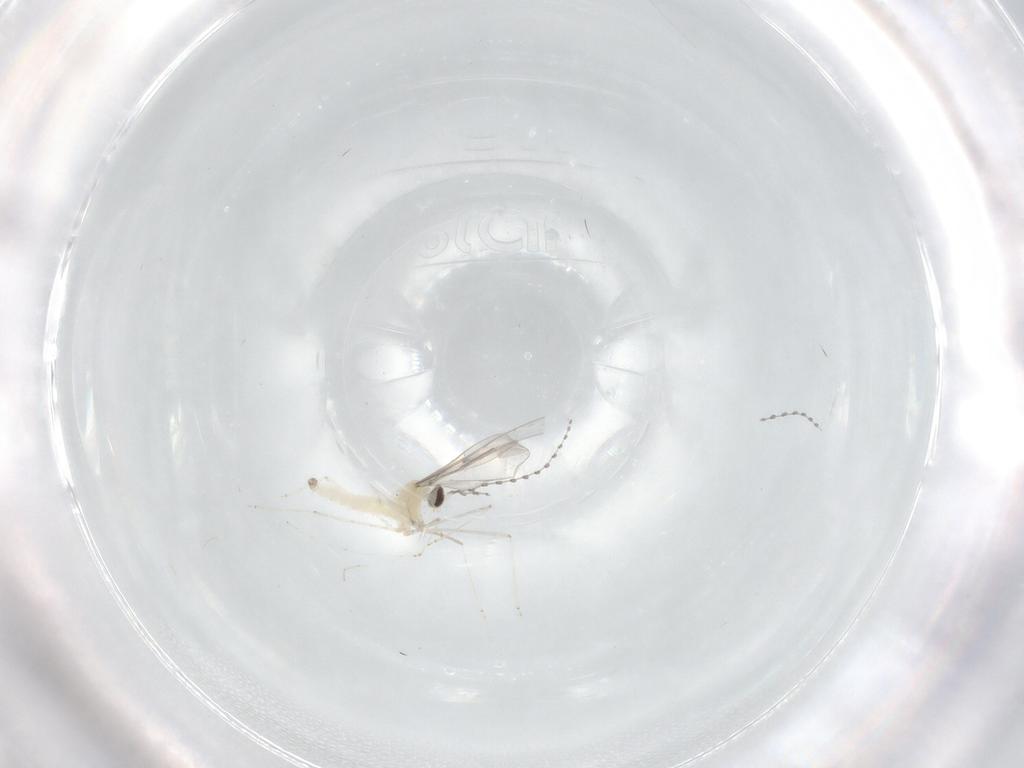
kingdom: Animalia
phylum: Arthropoda
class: Insecta
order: Diptera
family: Cecidomyiidae
